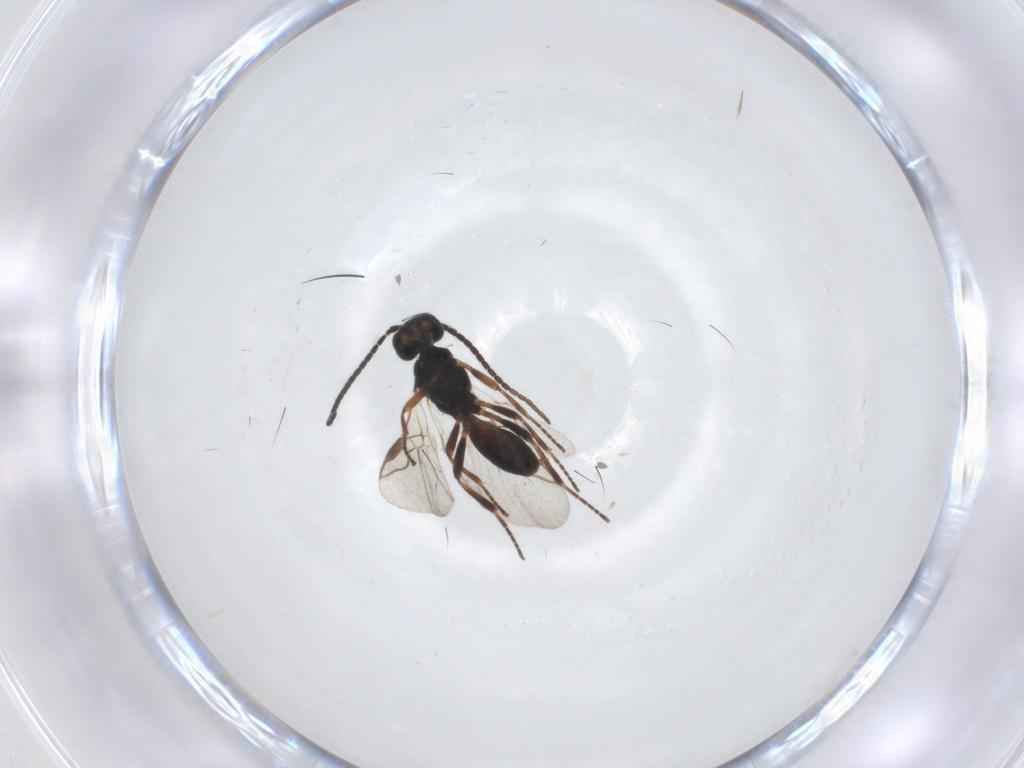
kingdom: Animalia
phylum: Arthropoda
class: Insecta
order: Hymenoptera
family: Braconidae
